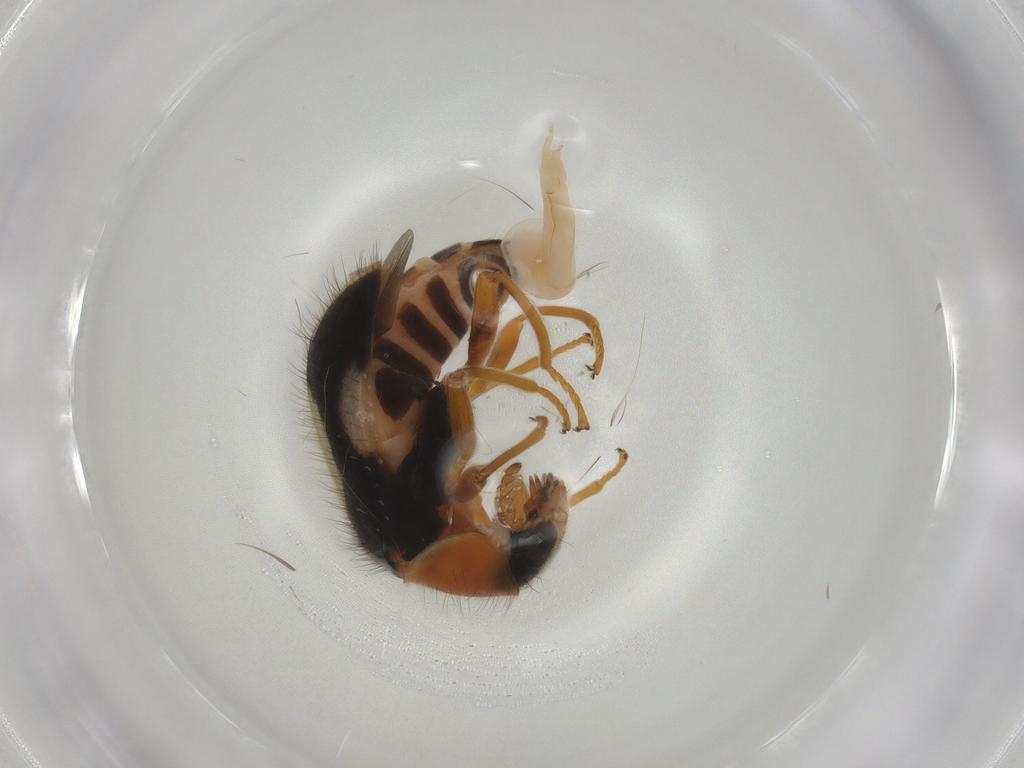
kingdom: Animalia
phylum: Arthropoda
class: Insecta
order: Coleoptera
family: Melyridae
